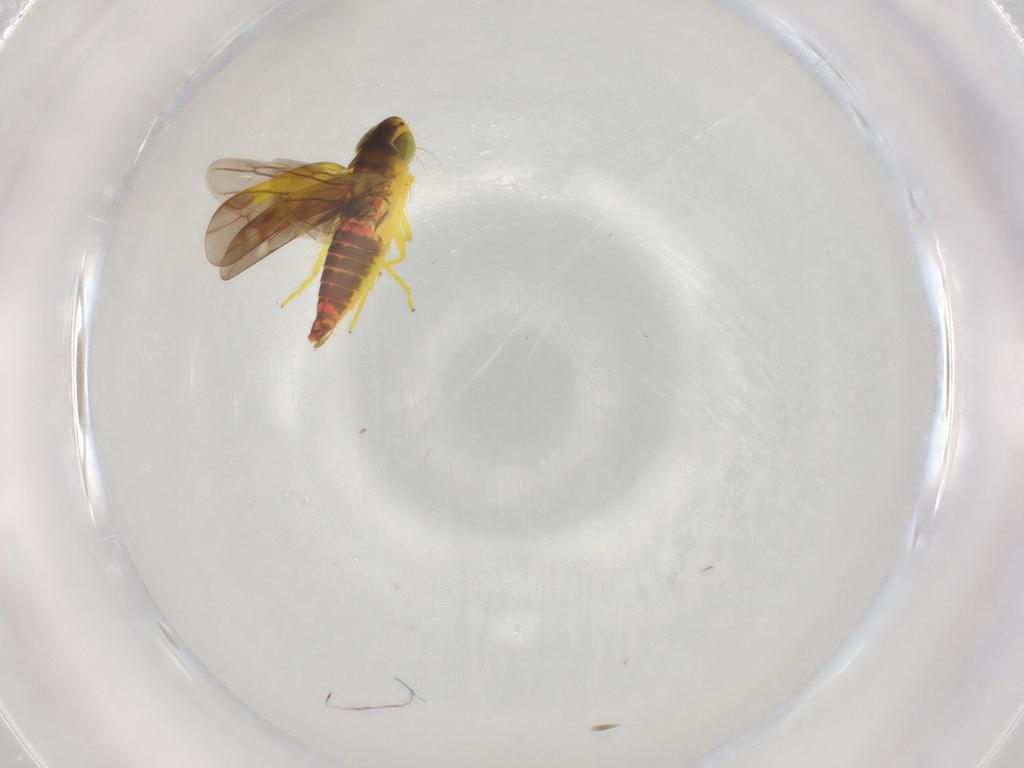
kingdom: Animalia
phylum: Arthropoda
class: Insecta
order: Hemiptera
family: Cicadellidae
